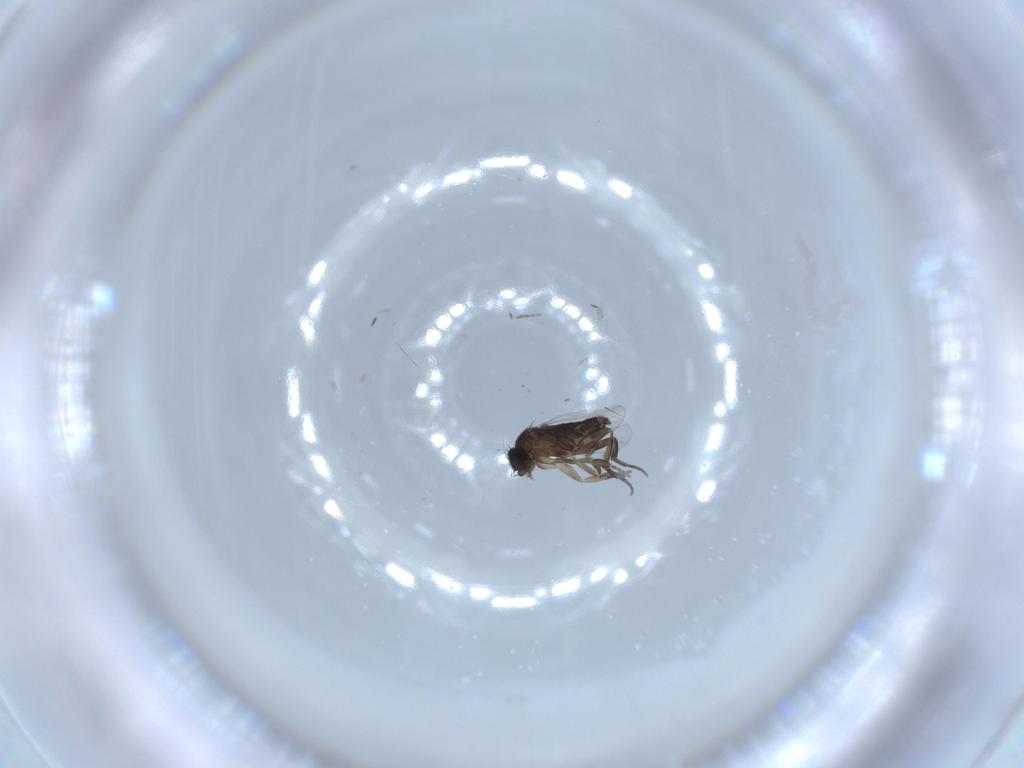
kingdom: Animalia
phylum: Arthropoda
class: Insecta
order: Diptera
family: Phoridae
